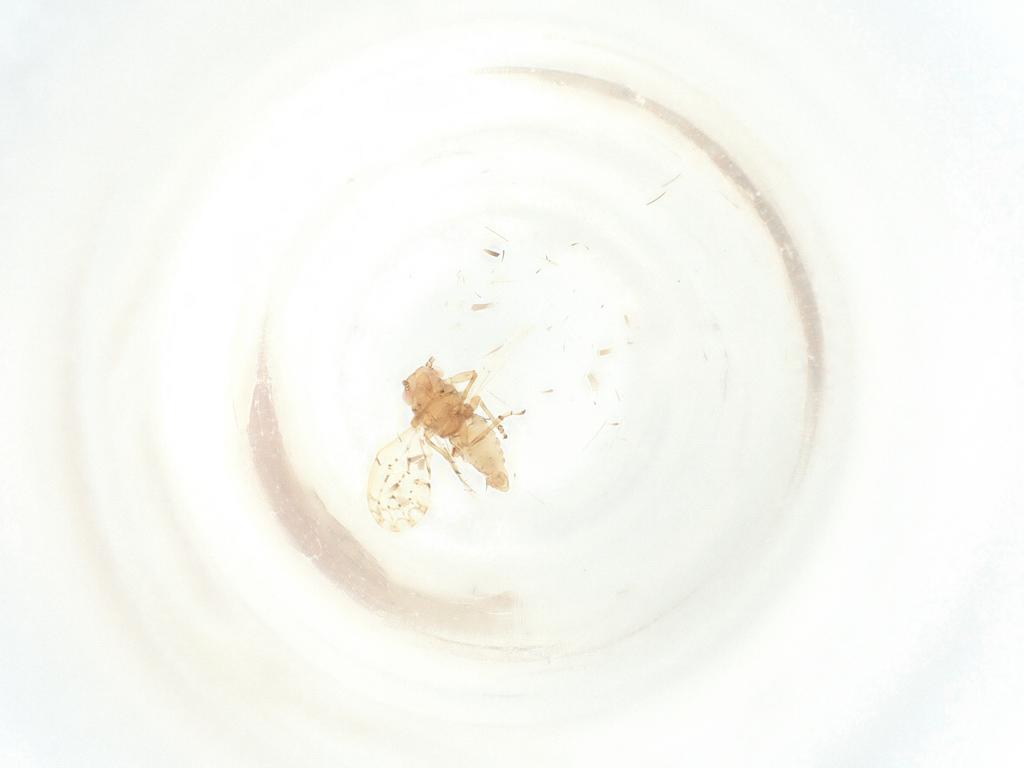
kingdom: Animalia
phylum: Arthropoda
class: Insecta
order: Hemiptera
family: Cicadellidae
